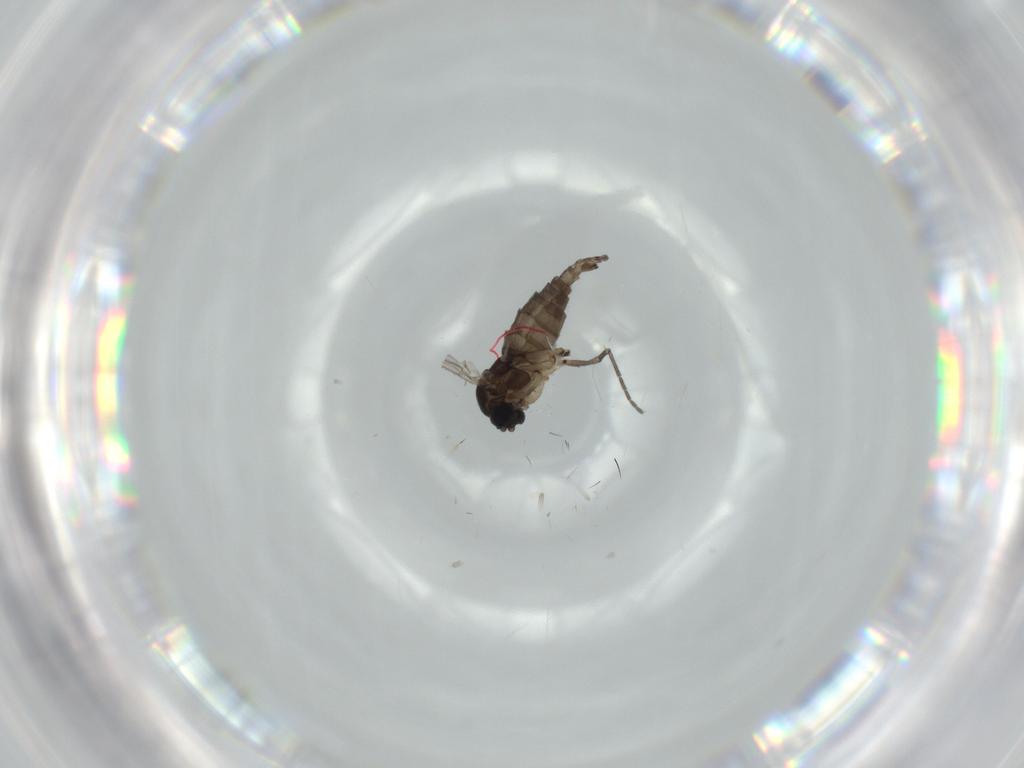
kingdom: Animalia
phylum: Arthropoda
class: Insecta
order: Diptera
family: Sciaridae
